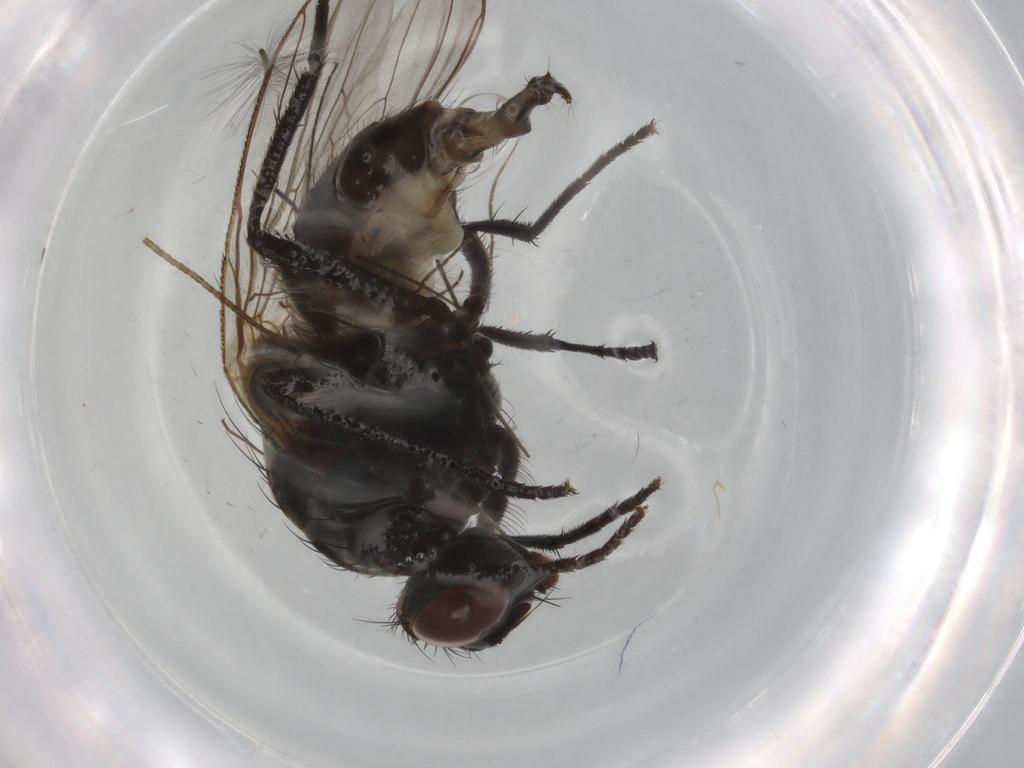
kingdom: Animalia
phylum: Arthropoda
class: Insecta
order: Diptera
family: Anthomyiidae
